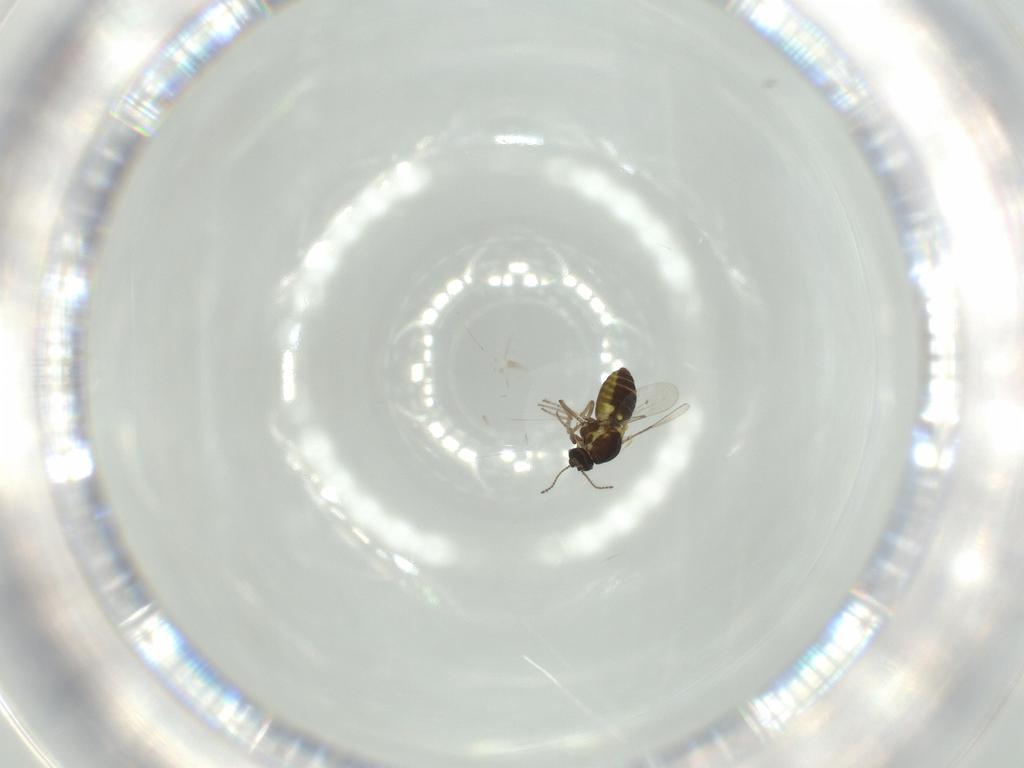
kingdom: Animalia
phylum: Arthropoda
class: Insecta
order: Diptera
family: Ceratopogonidae
